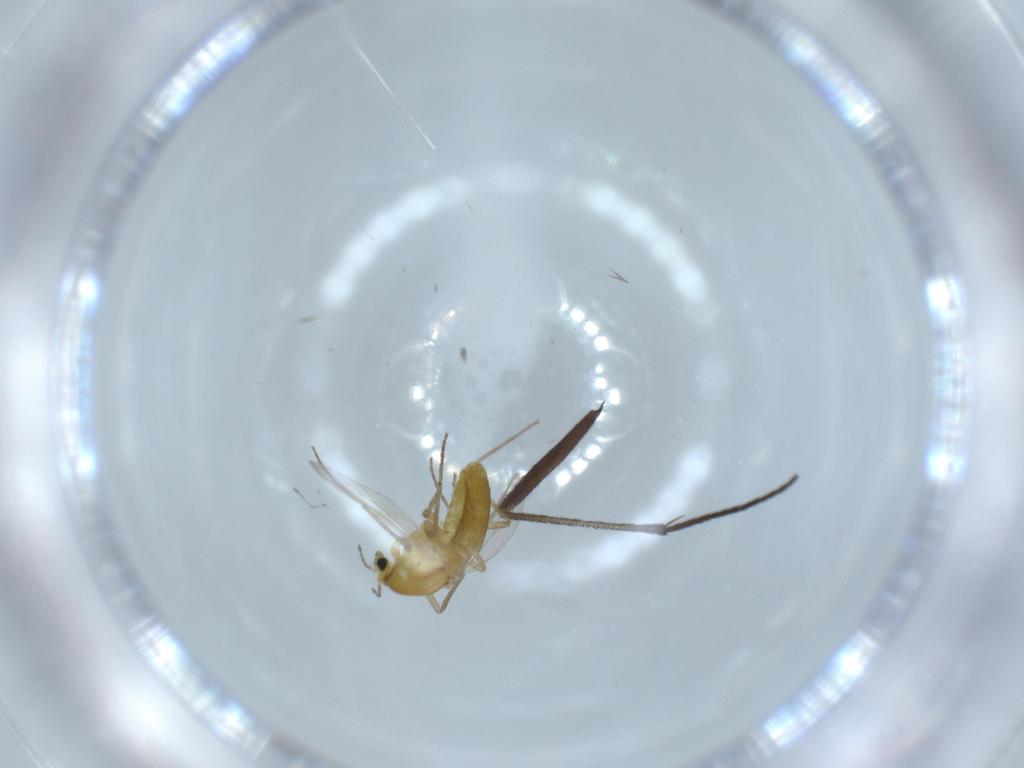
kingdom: Animalia
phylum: Arthropoda
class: Insecta
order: Diptera
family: Chironomidae
